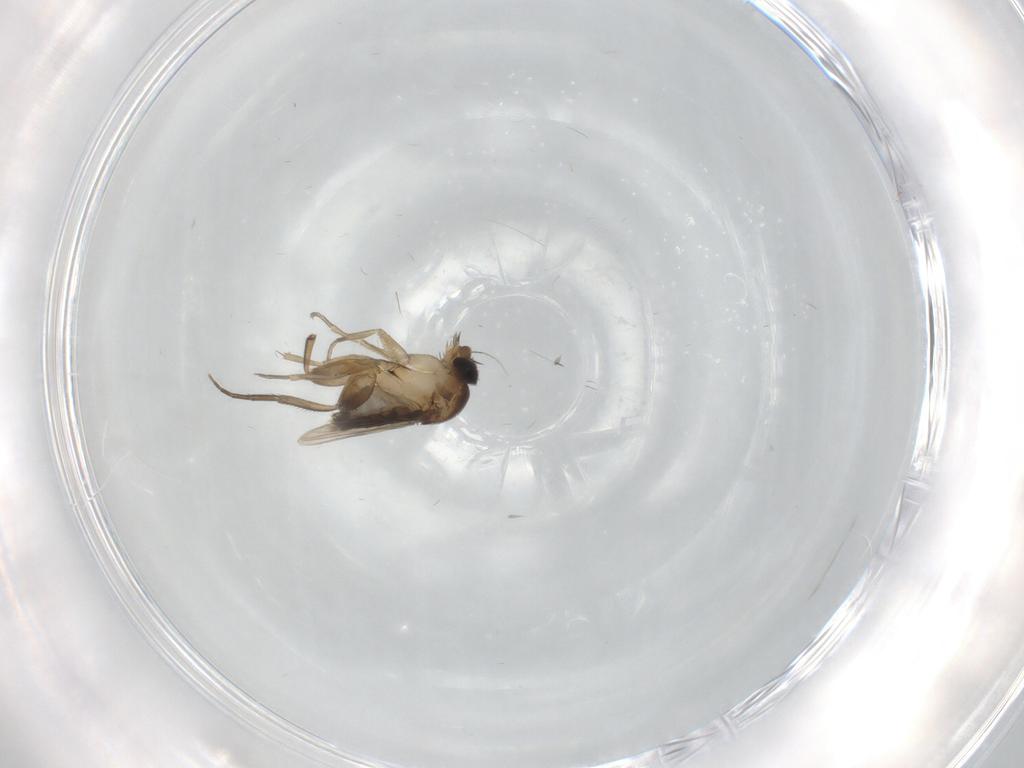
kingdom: Animalia
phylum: Arthropoda
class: Insecta
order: Diptera
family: Phoridae
